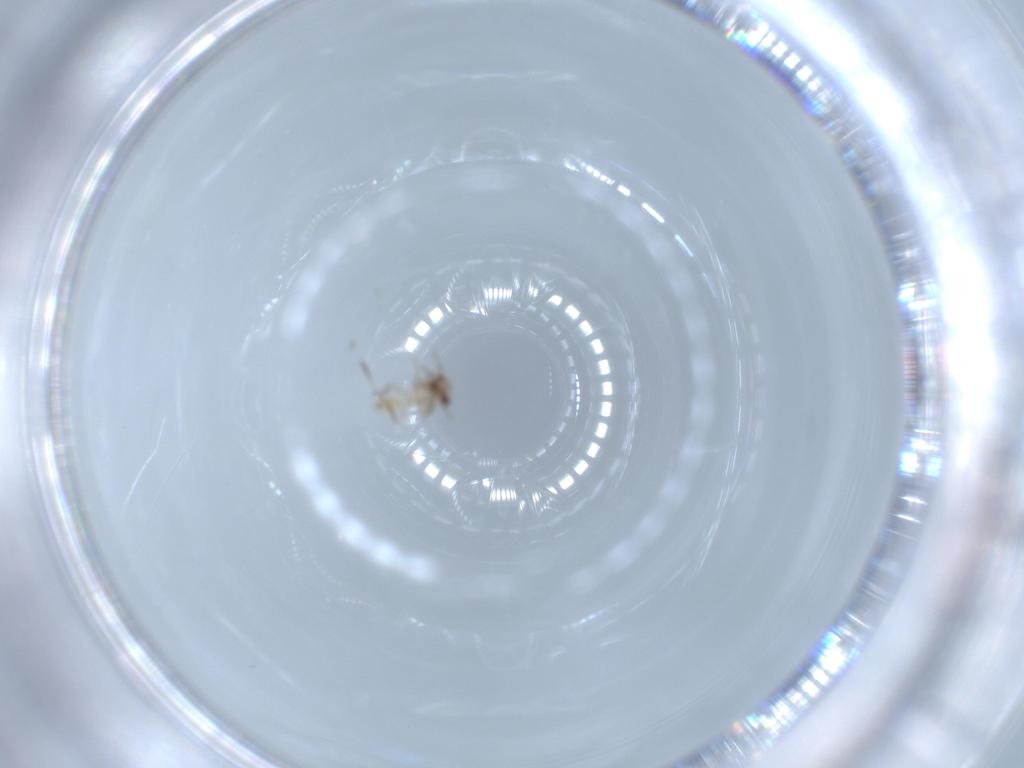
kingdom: Animalia
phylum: Arthropoda
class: Insecta
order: Psocodea
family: Lepidopsocidae
